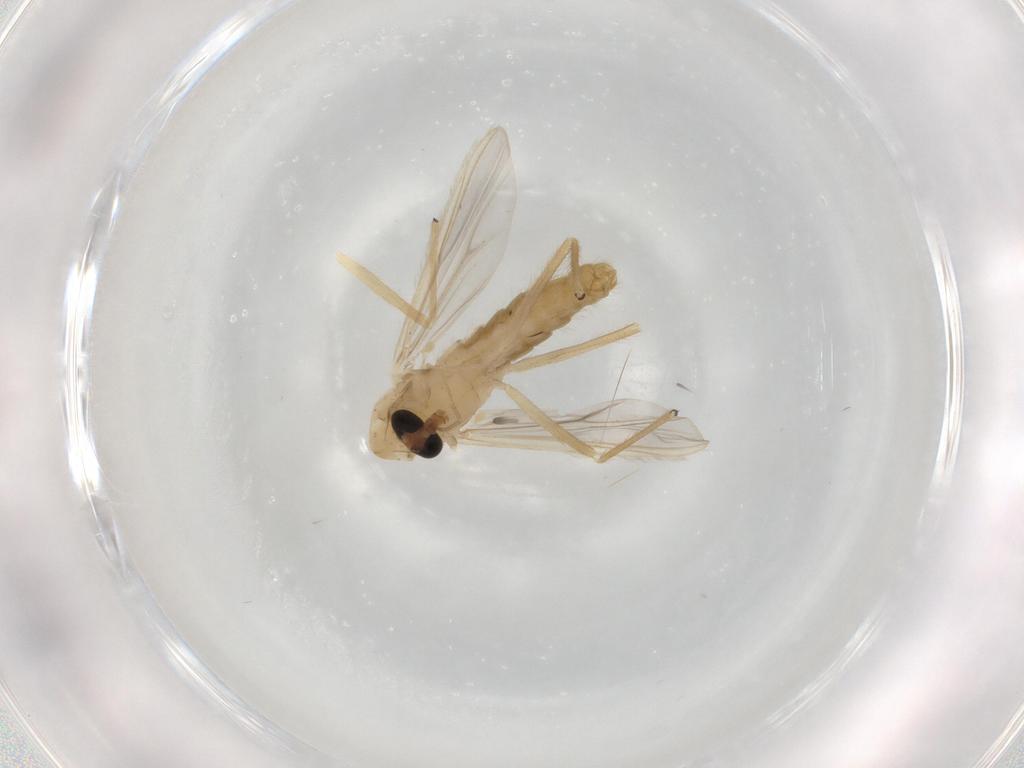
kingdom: Animalia
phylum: Arthropoda
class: Insecta
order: Diptera
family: Chironomidae
